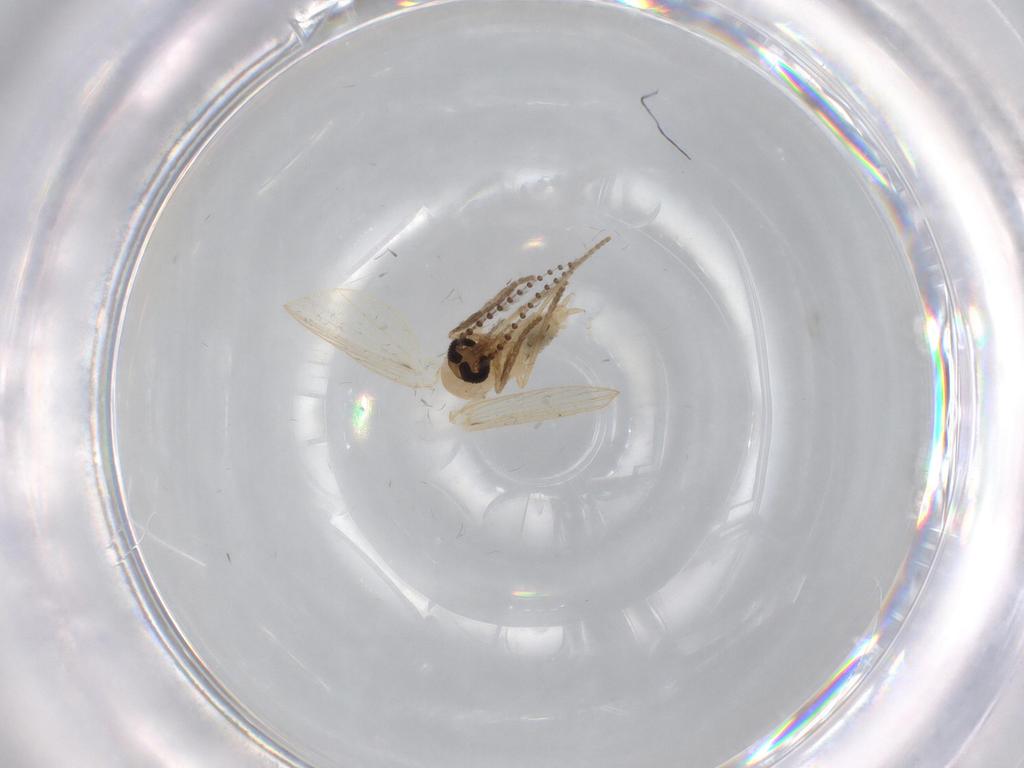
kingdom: Animalia
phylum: Arthropoda
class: Insecta
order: Diptera
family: Psychodidae
